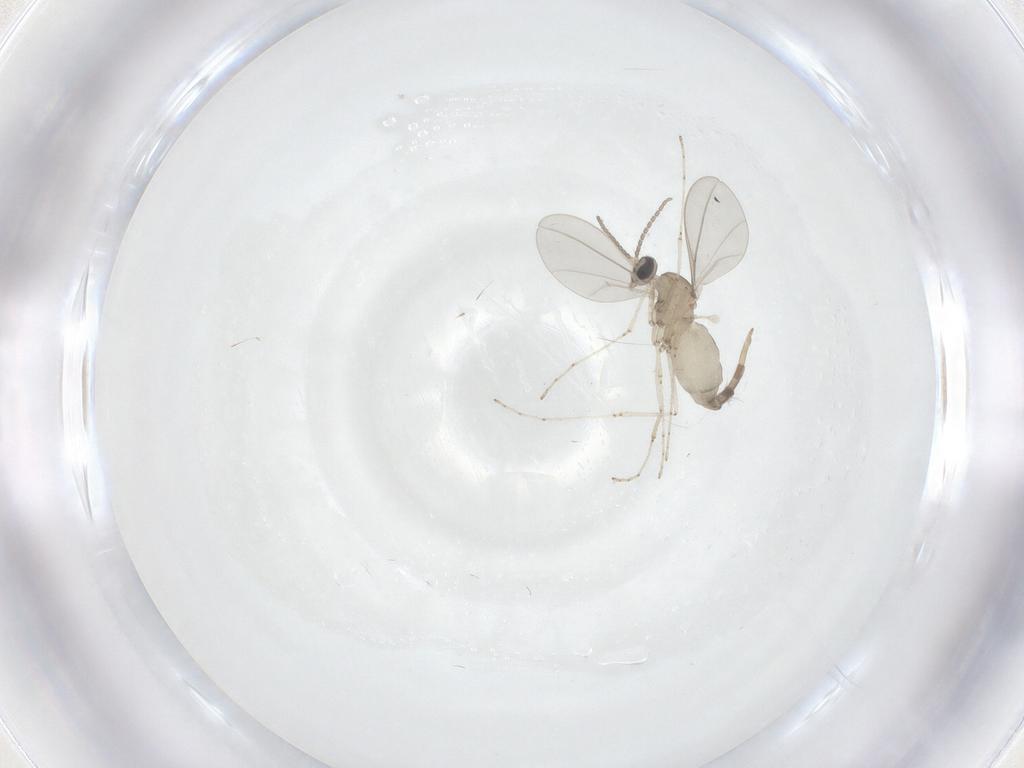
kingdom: Animalia
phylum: Arthropoda
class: Insecta
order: Diptera
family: Cecidomyiidae
